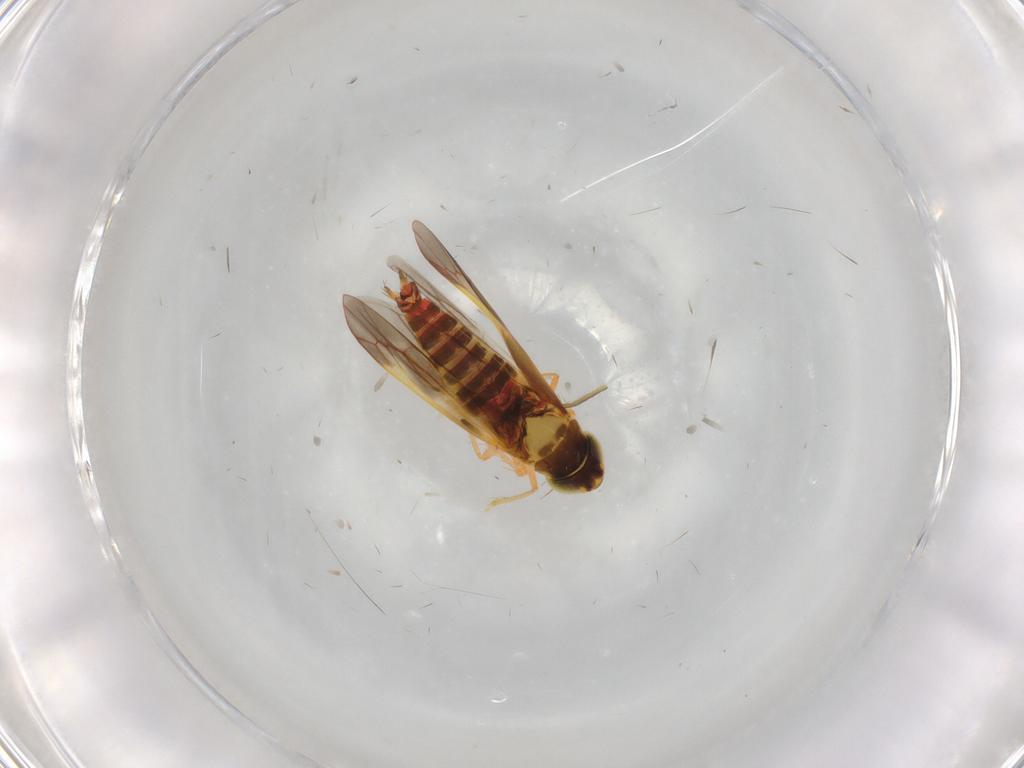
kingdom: Animalia
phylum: Arthropoda
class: Insecta
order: Hemiptera
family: Cicadellidae
